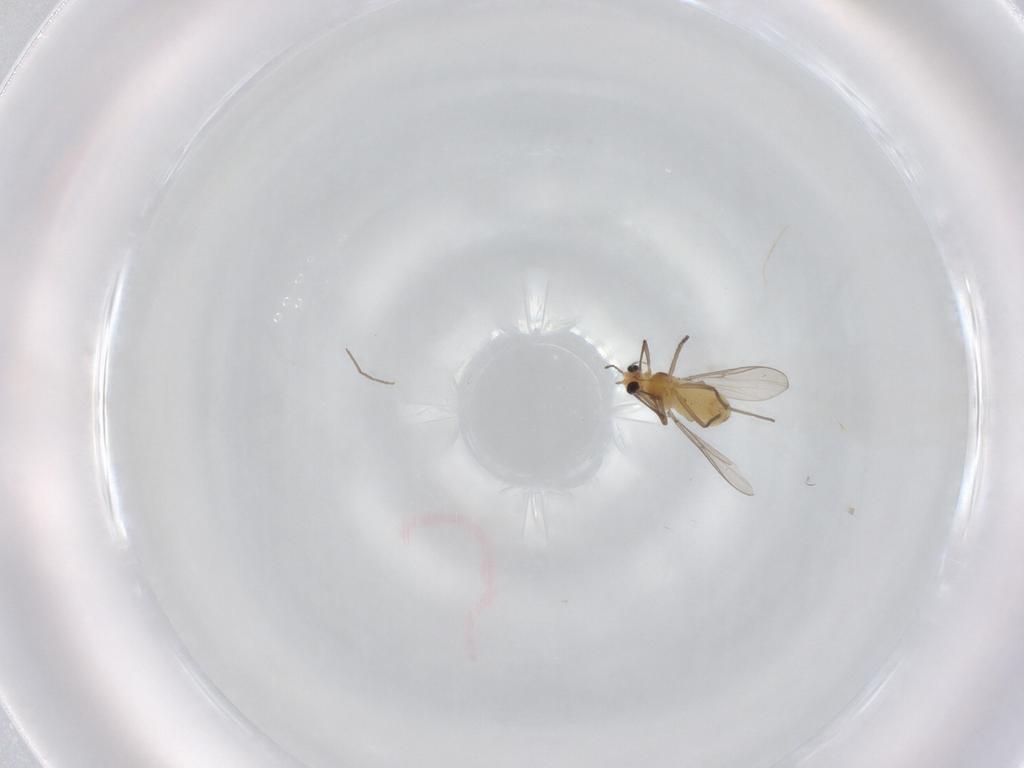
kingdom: Animalia
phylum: Arthropoda
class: Insecta
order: Diptera
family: Chironomidae
